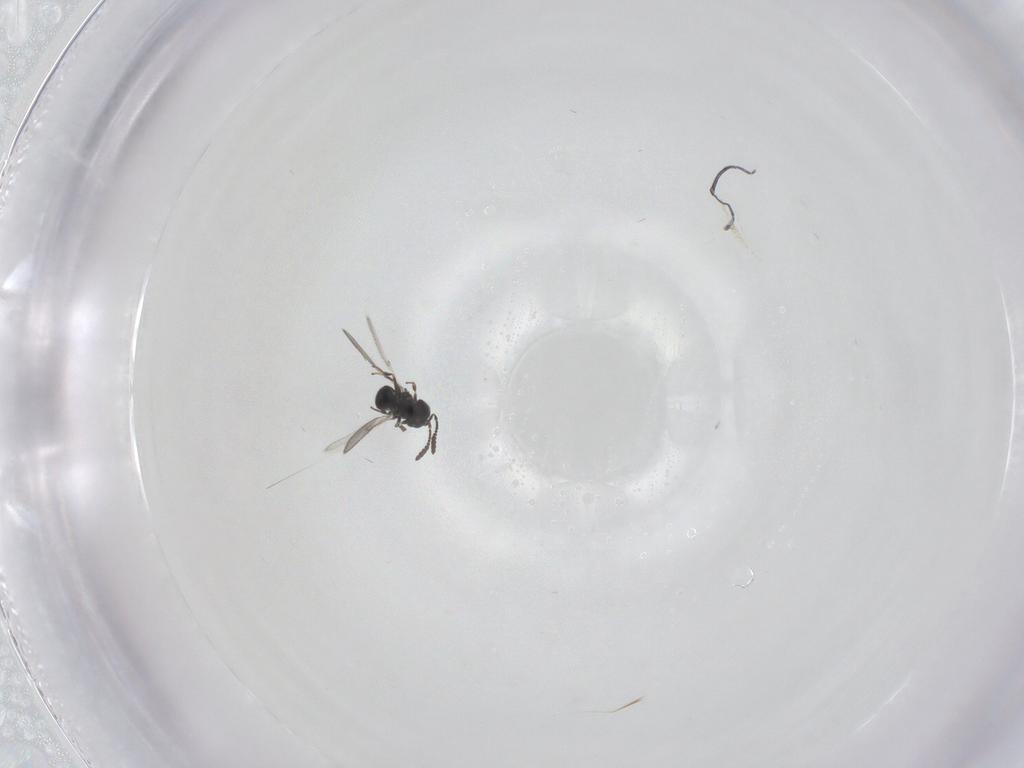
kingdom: Animalia
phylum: Arthropoda
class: Insecta
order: Hymenoptera
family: Scelionidae
